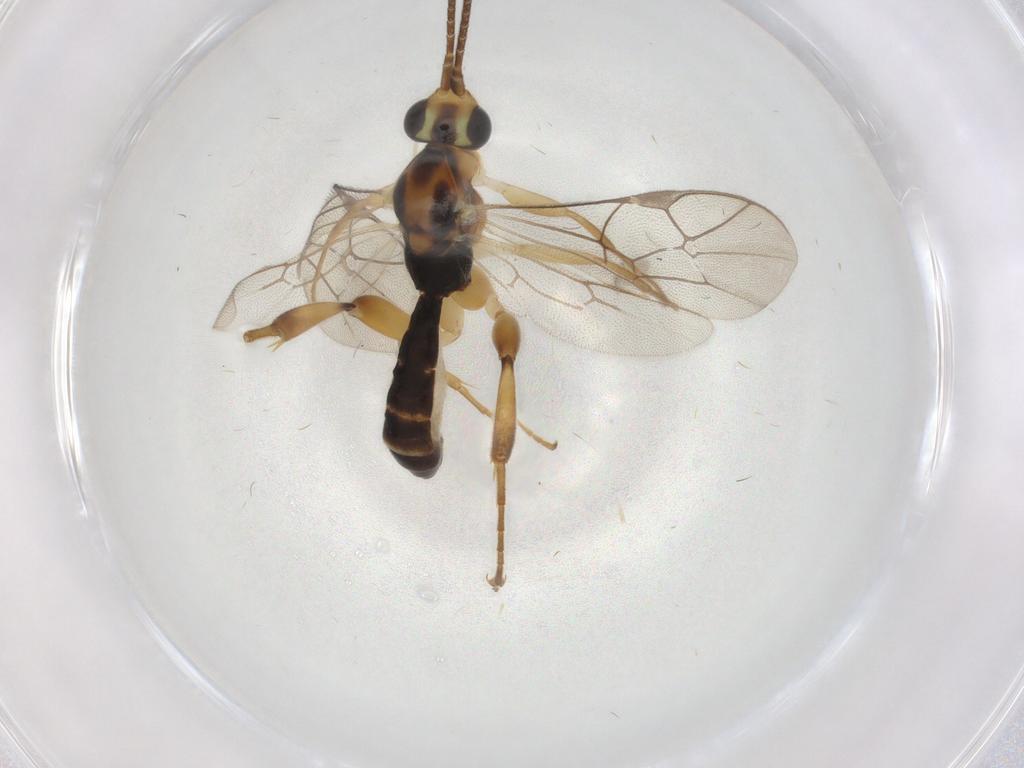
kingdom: Animalia
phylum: Arthropoda
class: Insecta
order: Hymenoptera
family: Ichneumonidae
